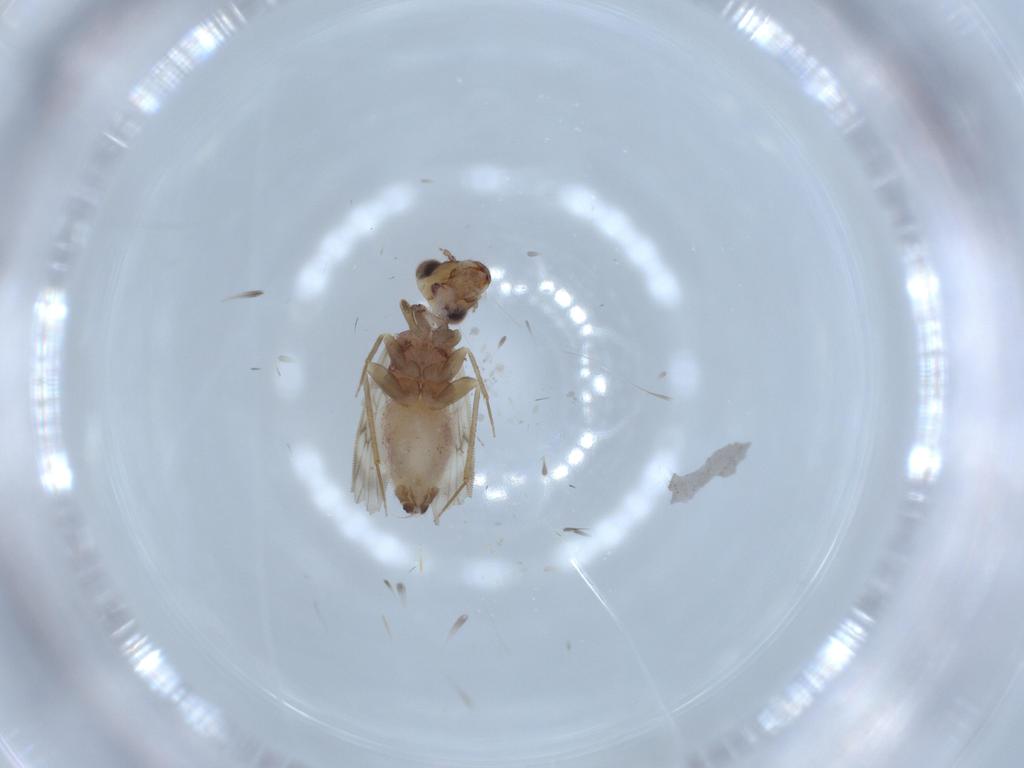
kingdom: Animalia
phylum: Arthropoda
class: Insecta
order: Psocodea
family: Lepidopsocidae
